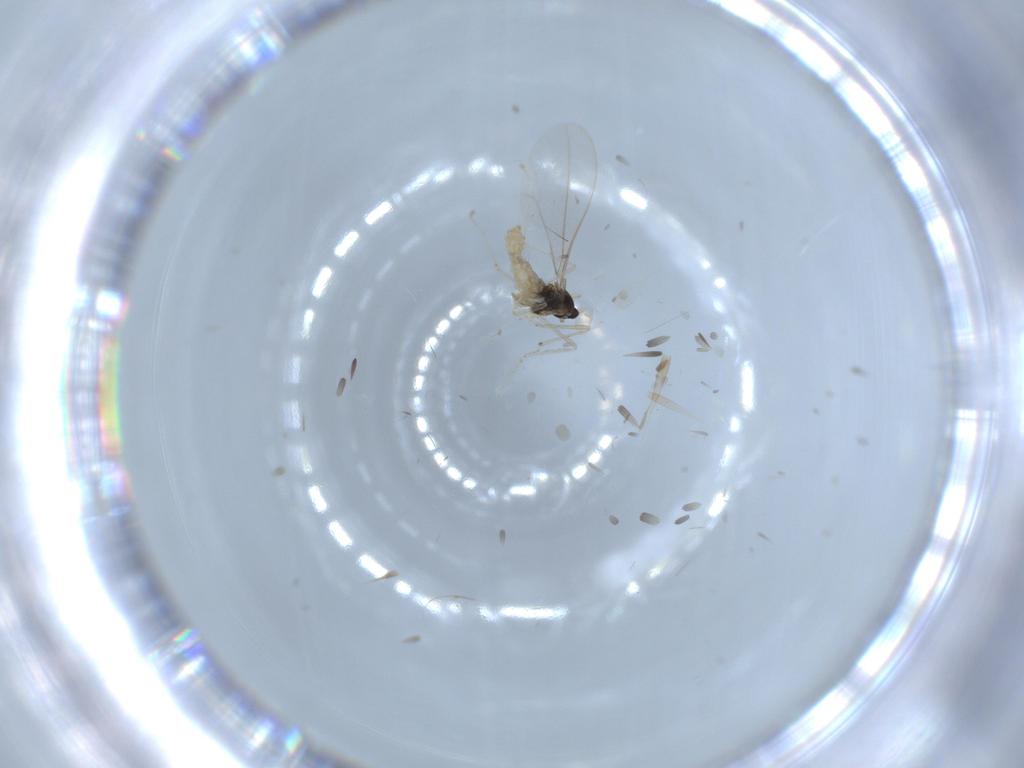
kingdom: Animalia
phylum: Arthropoda
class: Insecta
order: Diptera
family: Cecidomyiidae
